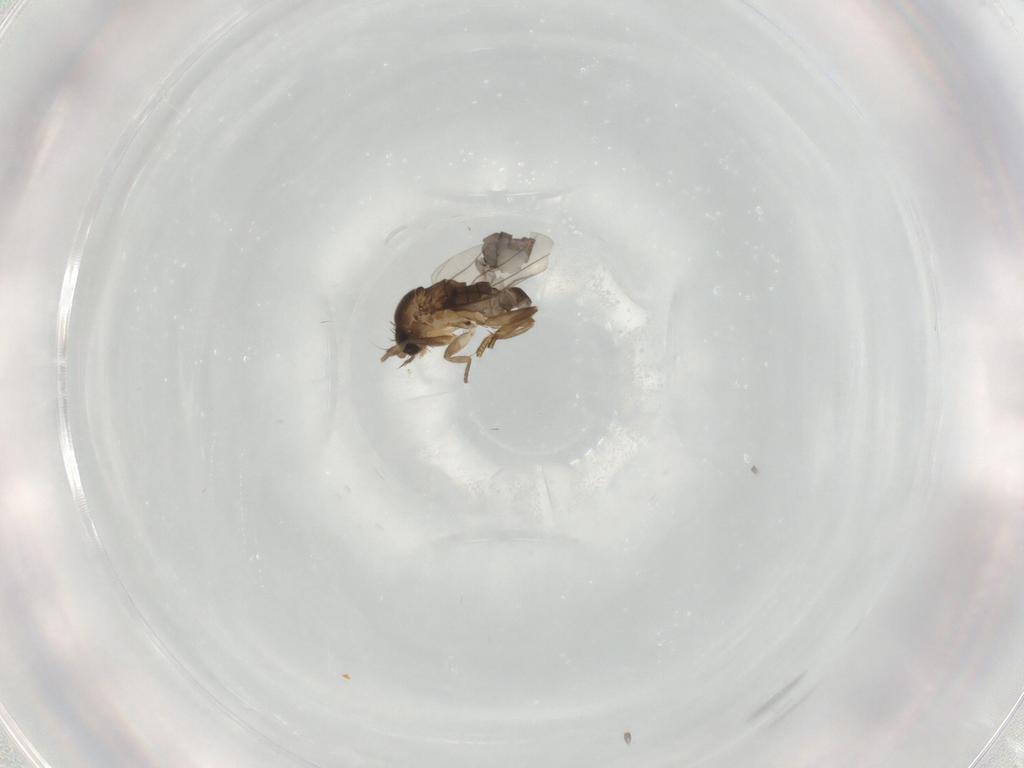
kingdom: Animalia
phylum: Arthropoda
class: Insecta
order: Diptera
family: Phoridae
